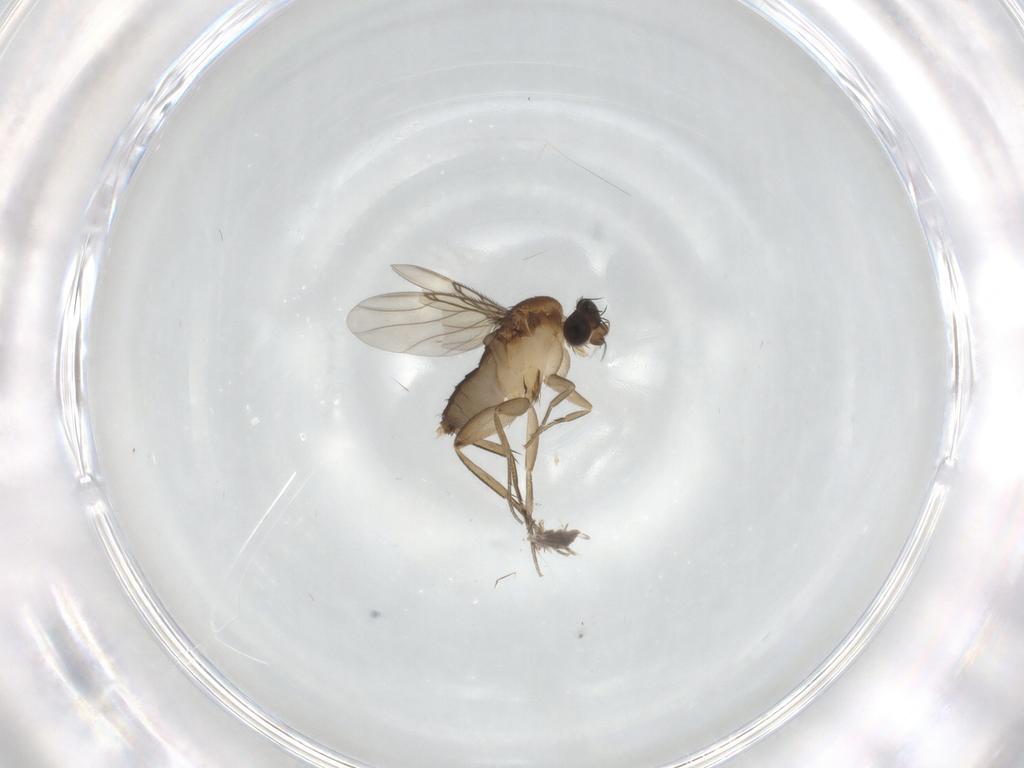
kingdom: Animalia
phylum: Arthropoda
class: Insecta
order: Diptera
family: Phoridae
